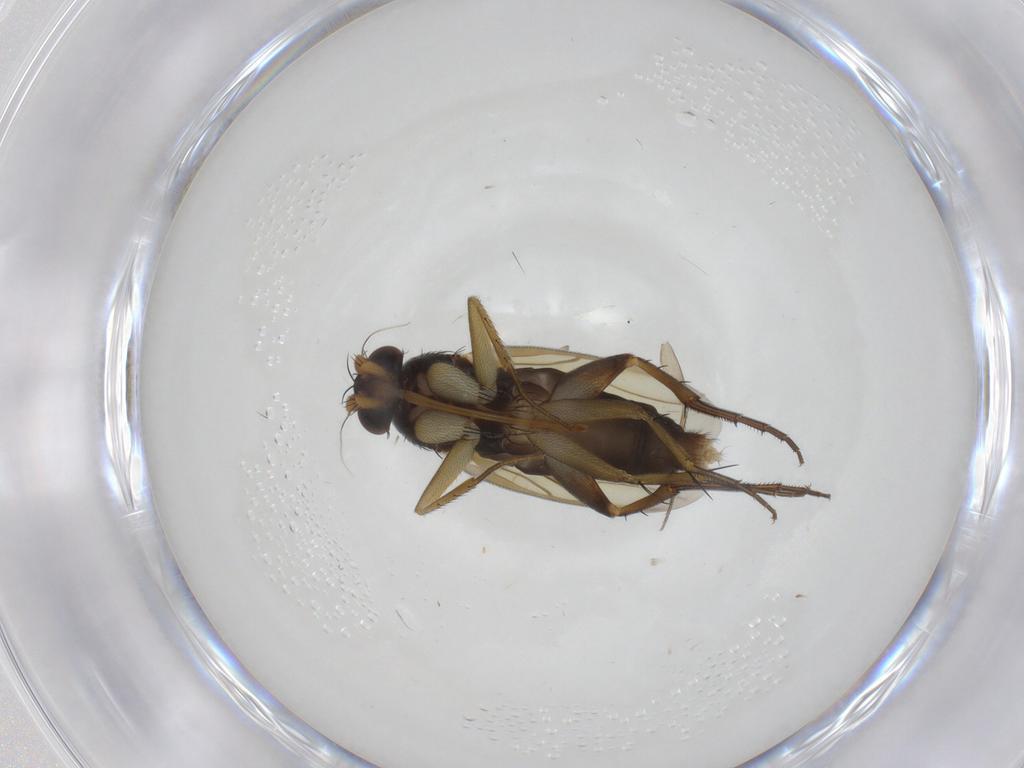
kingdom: Animalia
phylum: Arthropoda
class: Insecta
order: Diptera
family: Phoridae
